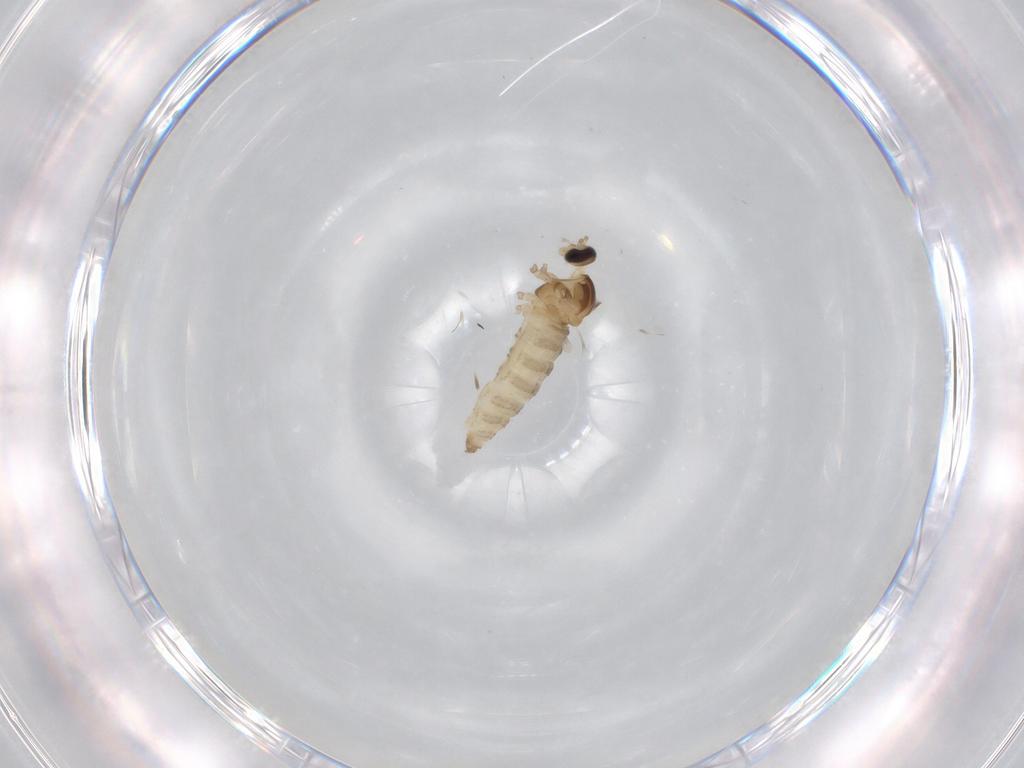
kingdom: Animalia
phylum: Arthropoda
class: Insecta
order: Diptera
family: Cecidomyiidae
